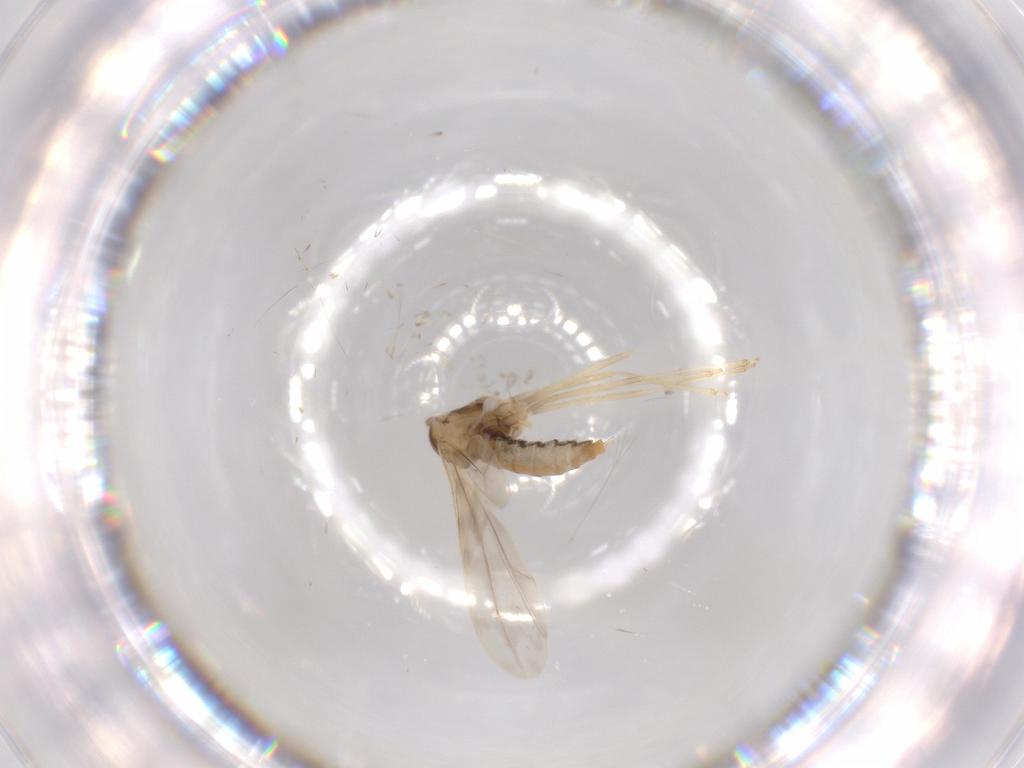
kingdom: Animalia
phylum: Arthropoda
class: Insecta
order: Diptera
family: Cecidomyiidae
